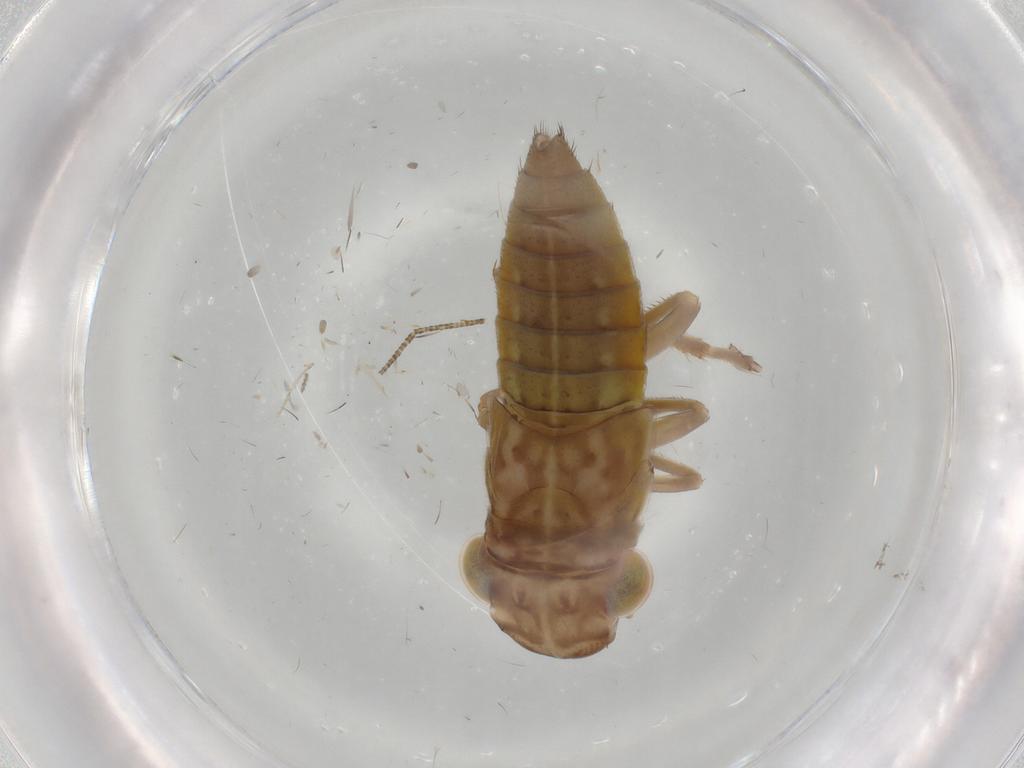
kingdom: Animalia
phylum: Arthropoda
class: Insecta
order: Hemiptera
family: Cicadellidae
